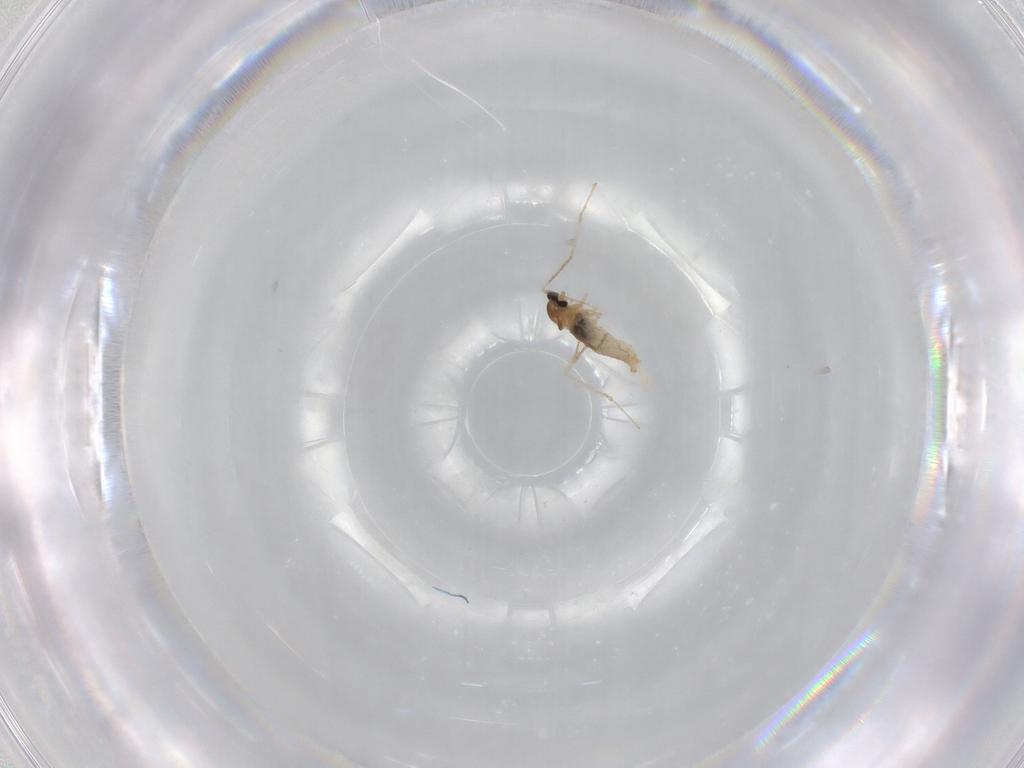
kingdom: Animalia
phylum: Arthropoda
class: Insecta
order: Diptera
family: Cecidomyiidae
